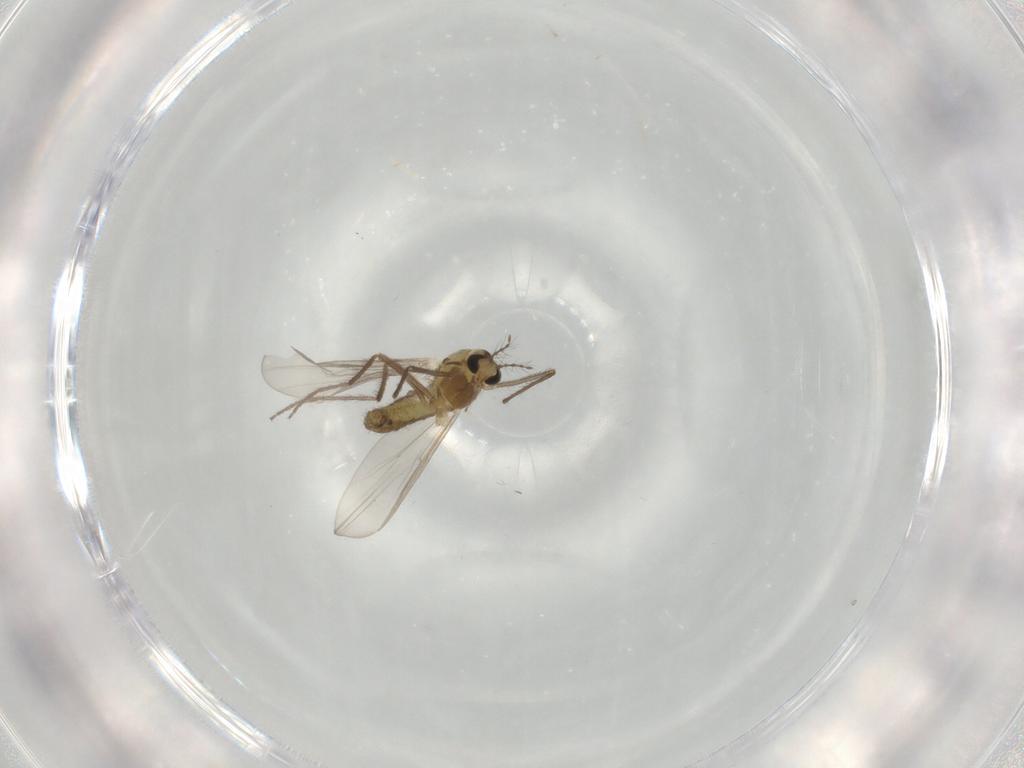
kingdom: Animalia
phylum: Arthropoda
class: Insecta
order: Diptera
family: Chironomidae
